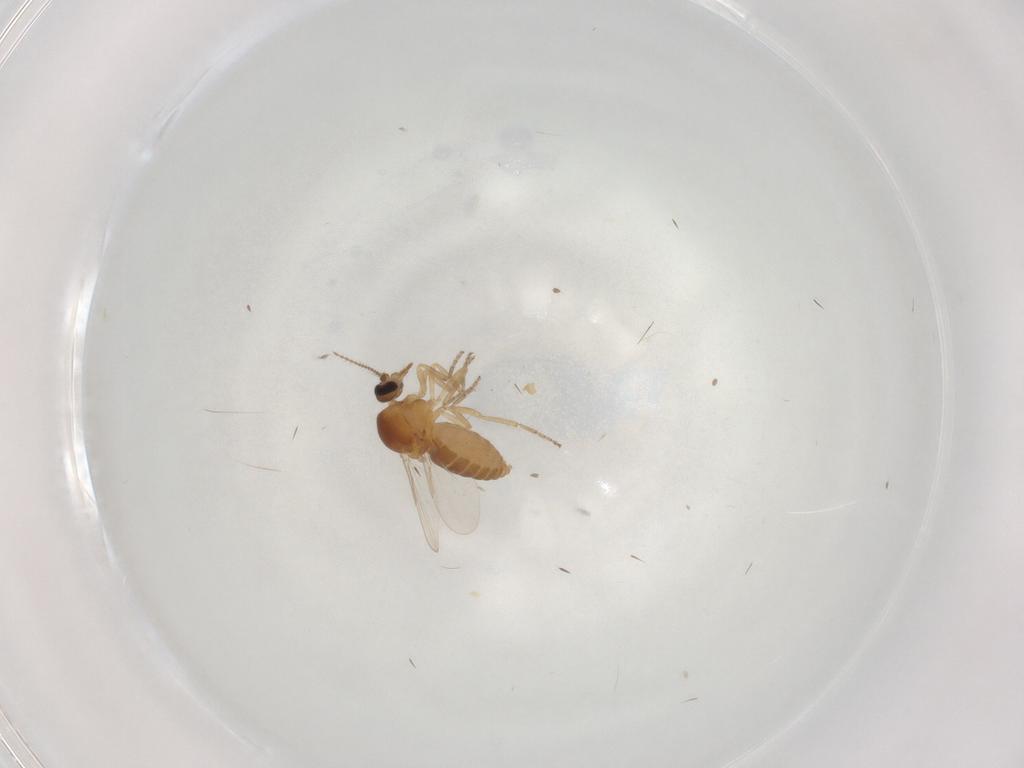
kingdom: Animalia
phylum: Arthropoda
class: Insecta
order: Diptera
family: Ceratopogonidae
